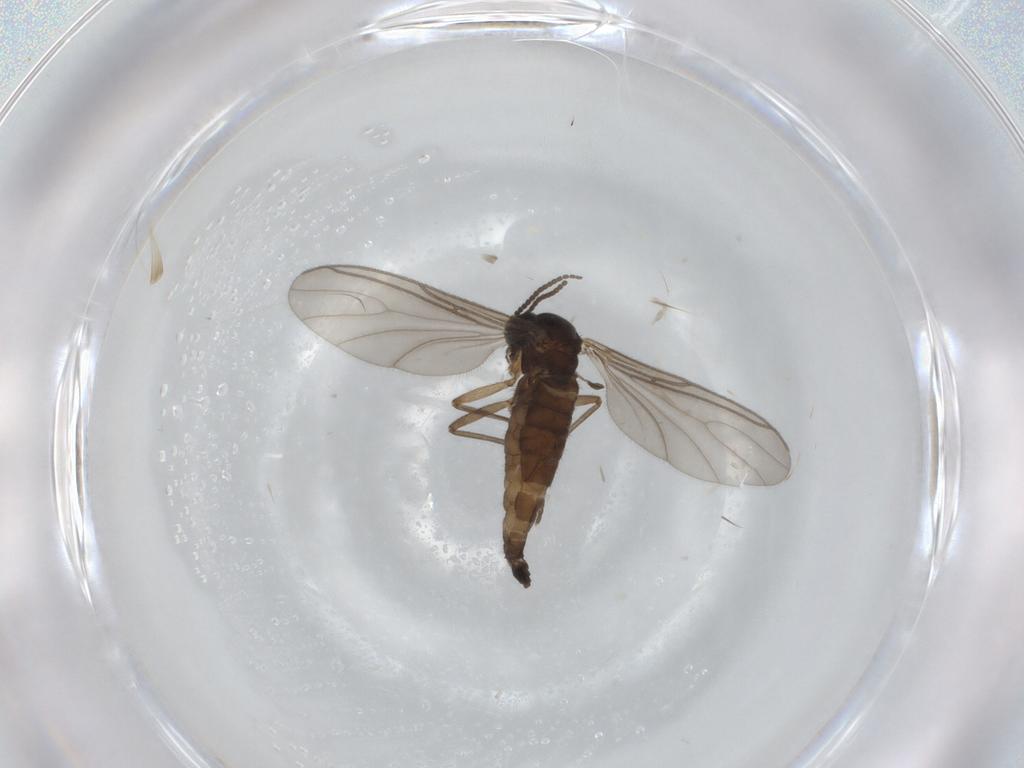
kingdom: Animalia
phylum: Arthropoda
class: Insecta
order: Diptera
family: Sciaridae
